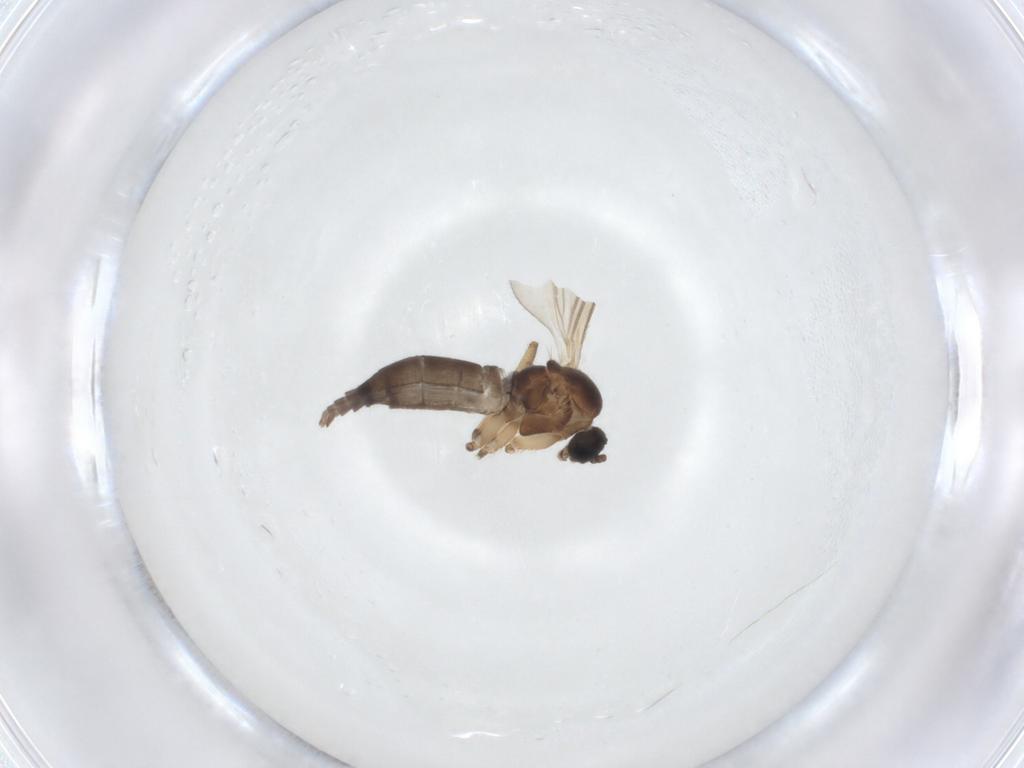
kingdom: Animalia
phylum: Arthropoda
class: Insecta
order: Diptera
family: Sciaridae
